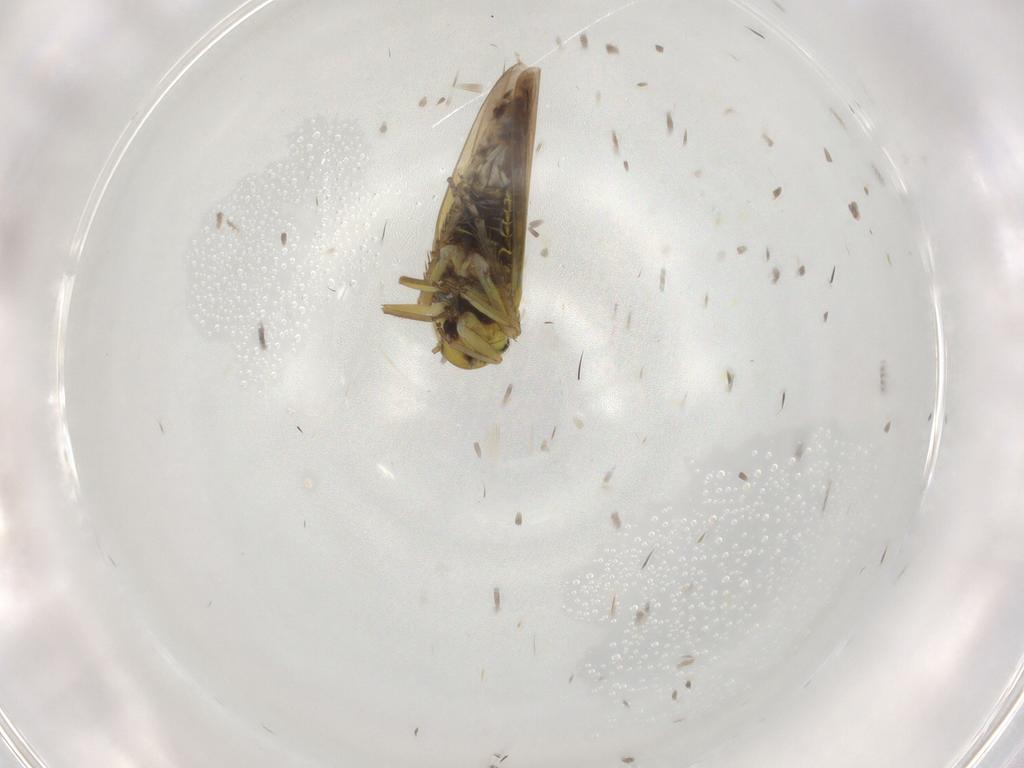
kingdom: Animalia
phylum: Arthropoda
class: Insecta
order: Hemiptera
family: Cicadellidae
